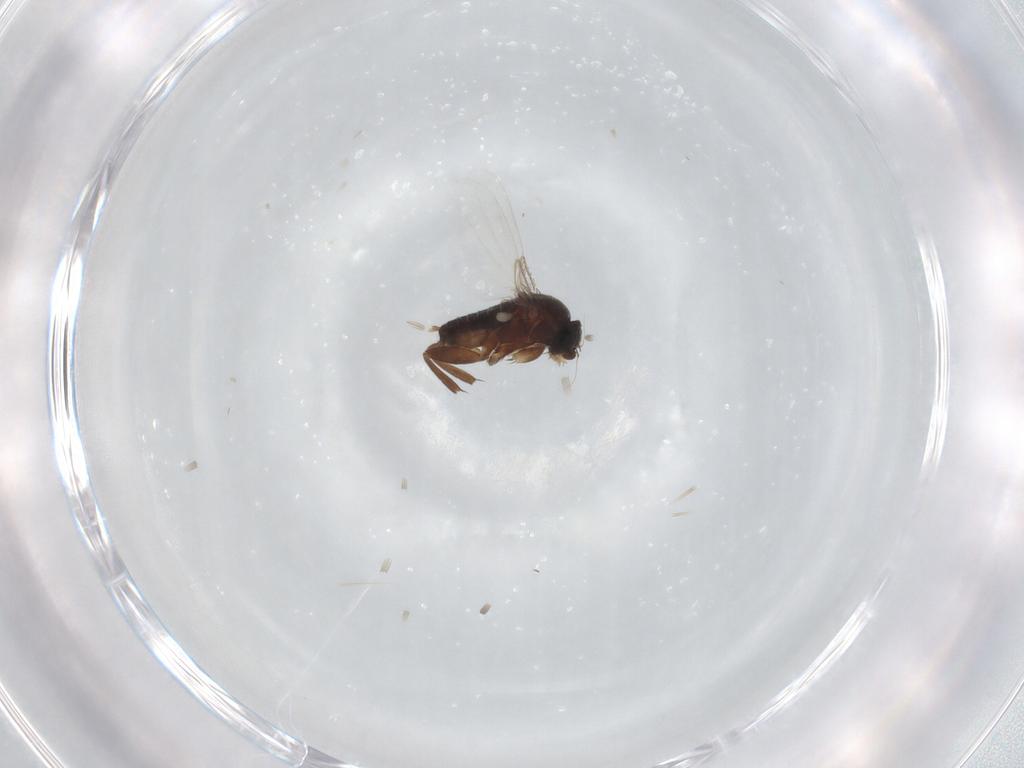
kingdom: Animalia
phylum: Arthropoda
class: Insecta
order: Diptera
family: Phoridae
